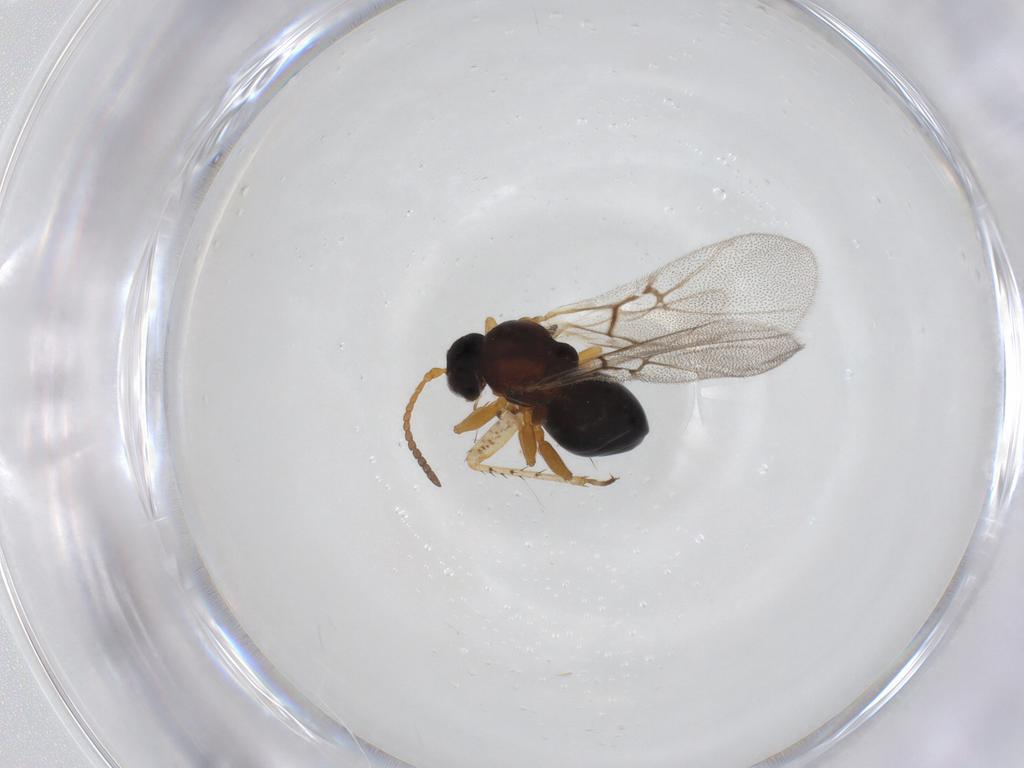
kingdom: Animalia
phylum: Arthropoda
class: Insecta
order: Hymenoptera
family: Cynipidae
